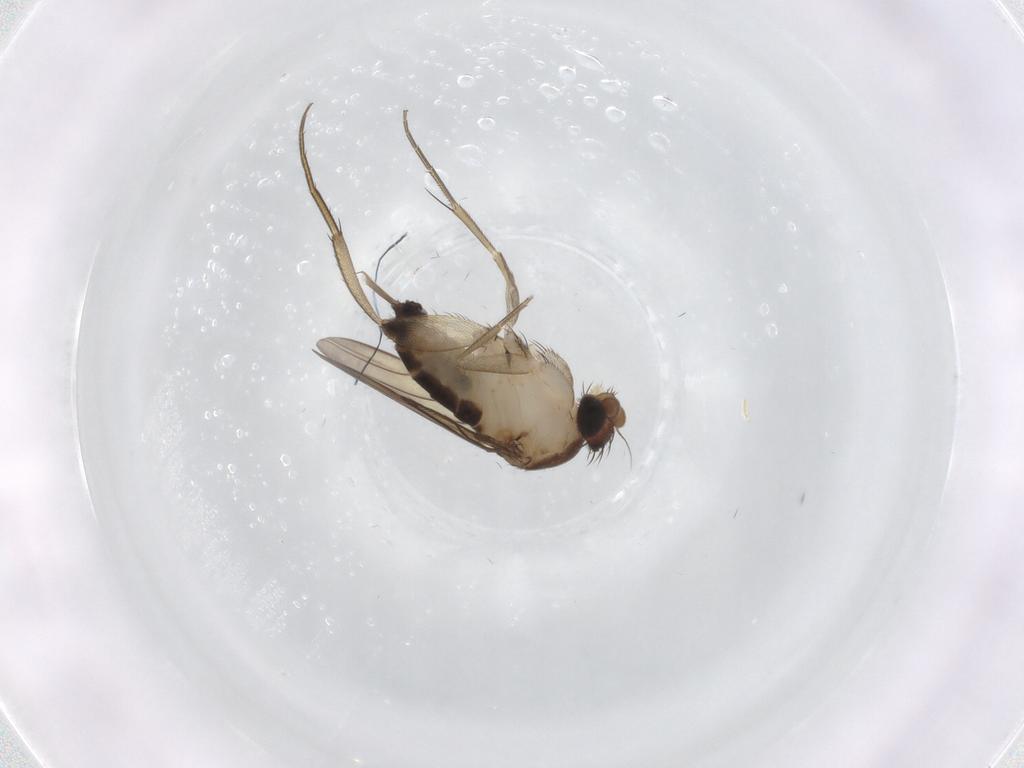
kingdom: Animalia
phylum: Arthropoda
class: Insecta
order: Diptera
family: Phoridae
